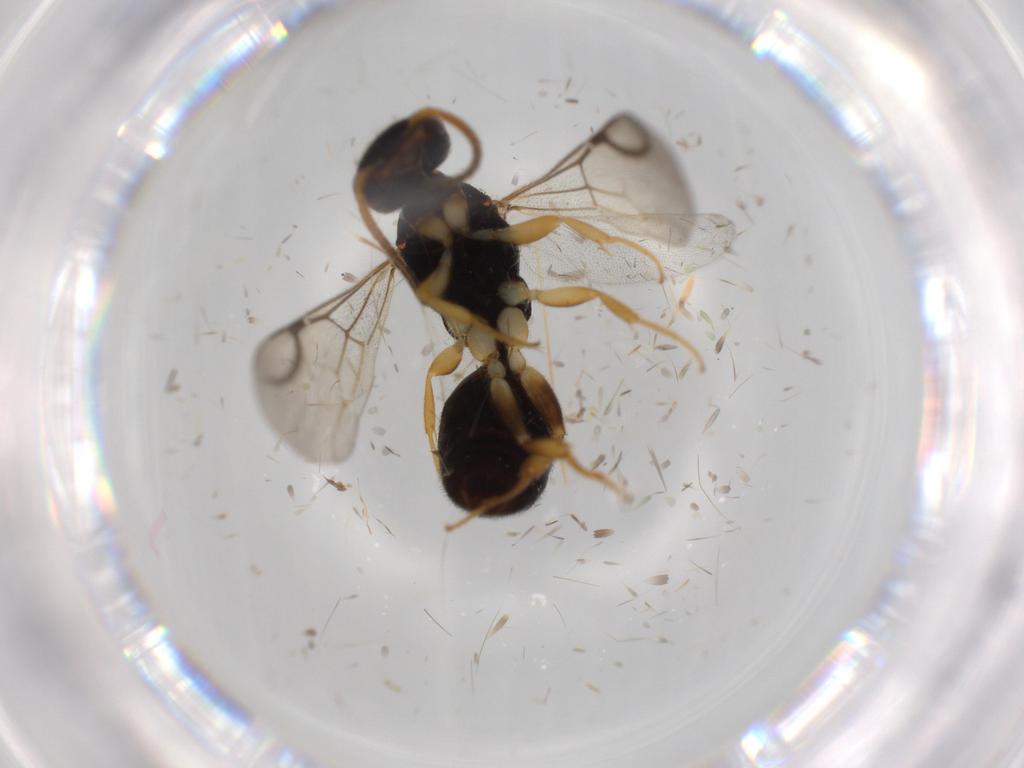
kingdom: Animalia
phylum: Arthropoda
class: Insecta
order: Hymenoptera
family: Bethylidae
